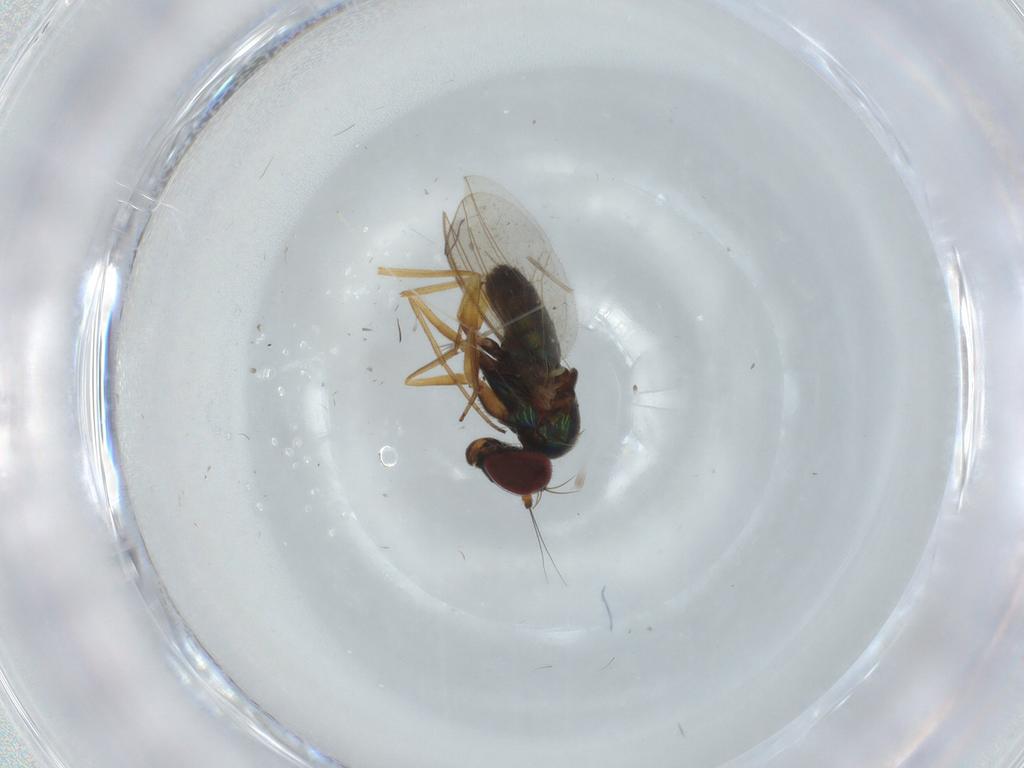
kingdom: Animalia
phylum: Arthropoda
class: Insecta
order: Diptera
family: Dolichopodidae
